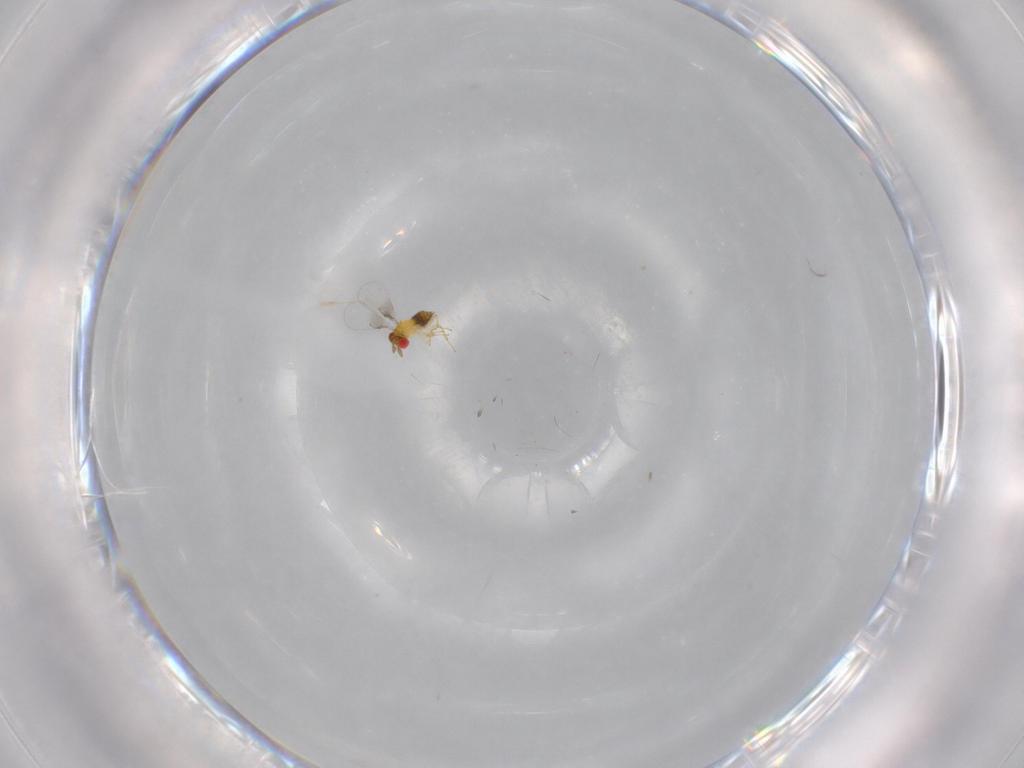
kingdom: Animalia
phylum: Arthropoda
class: Insecta
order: Hymenoptera
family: Trichogrammatidae
